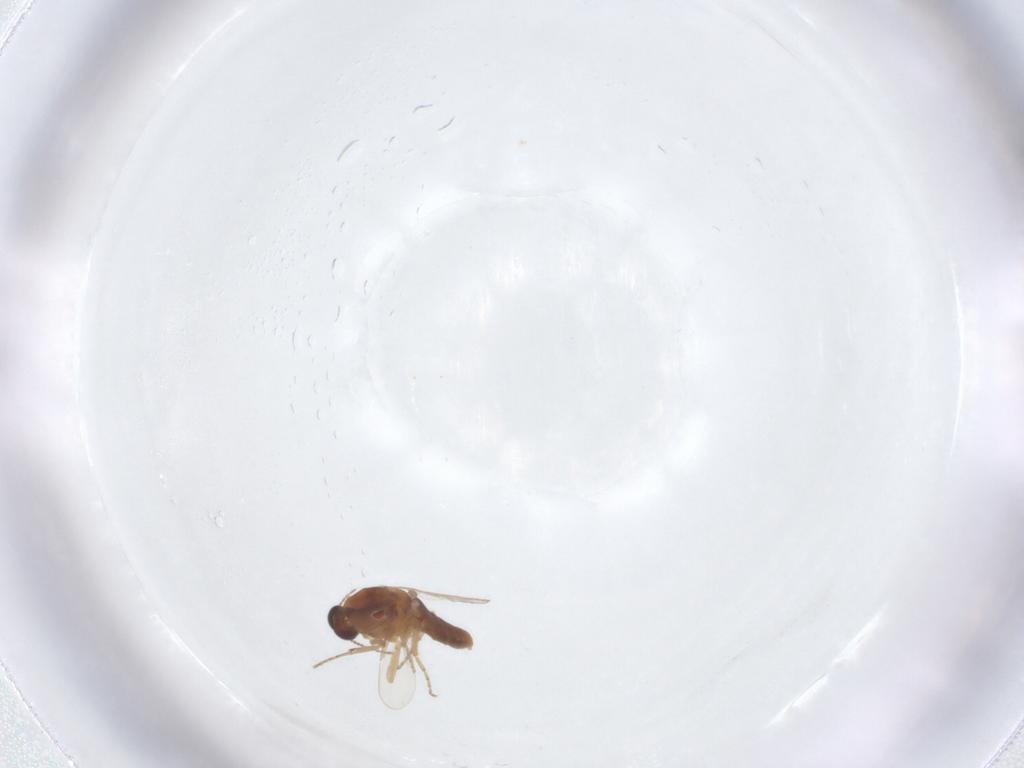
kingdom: Animalia
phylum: Arthropoda
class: Insecta
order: Diptera
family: Ceratopogonidae
